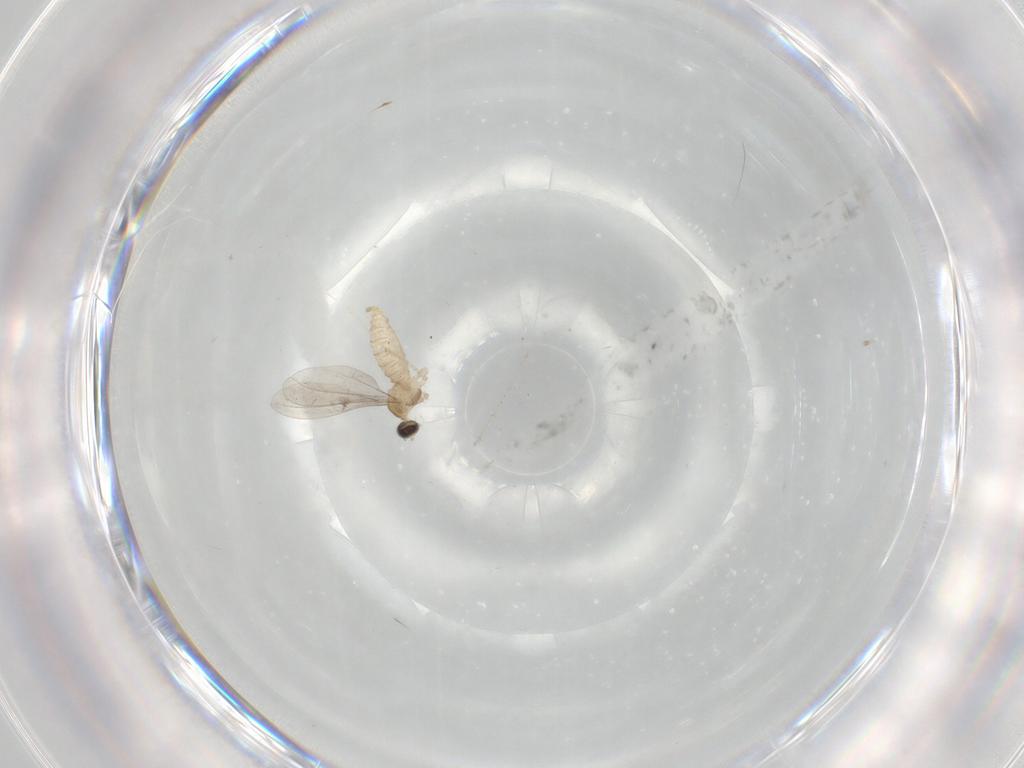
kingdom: Animalia
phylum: Arthropoda
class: Insecta
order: Diptera
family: Cecidomyiidae
